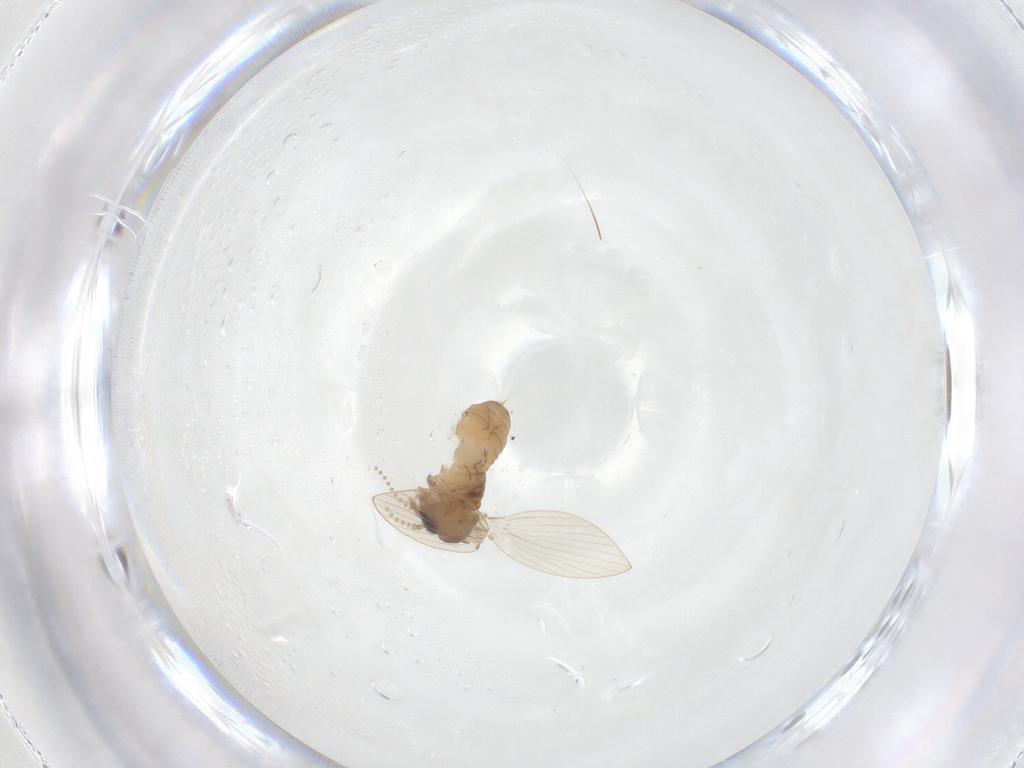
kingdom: Animalia
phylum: Arthropoda
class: Insecta
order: Diptera
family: Psychodidae
